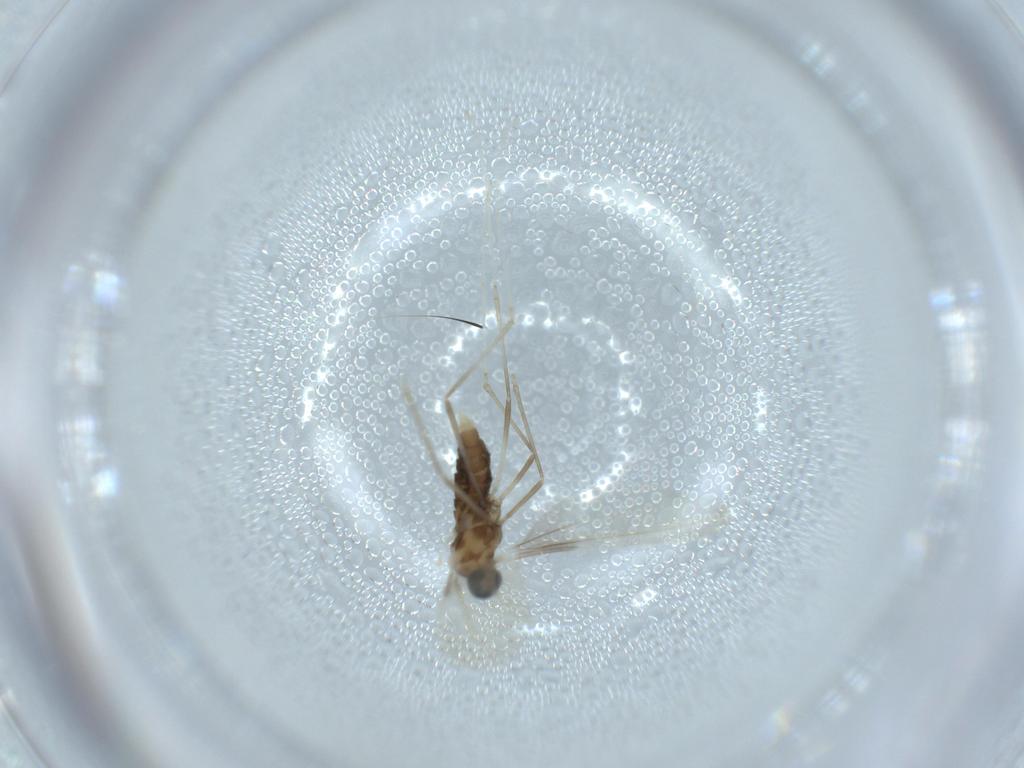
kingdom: Animalia
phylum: Arthropoda
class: Insecta
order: Diptera
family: Cecidomyiidae
